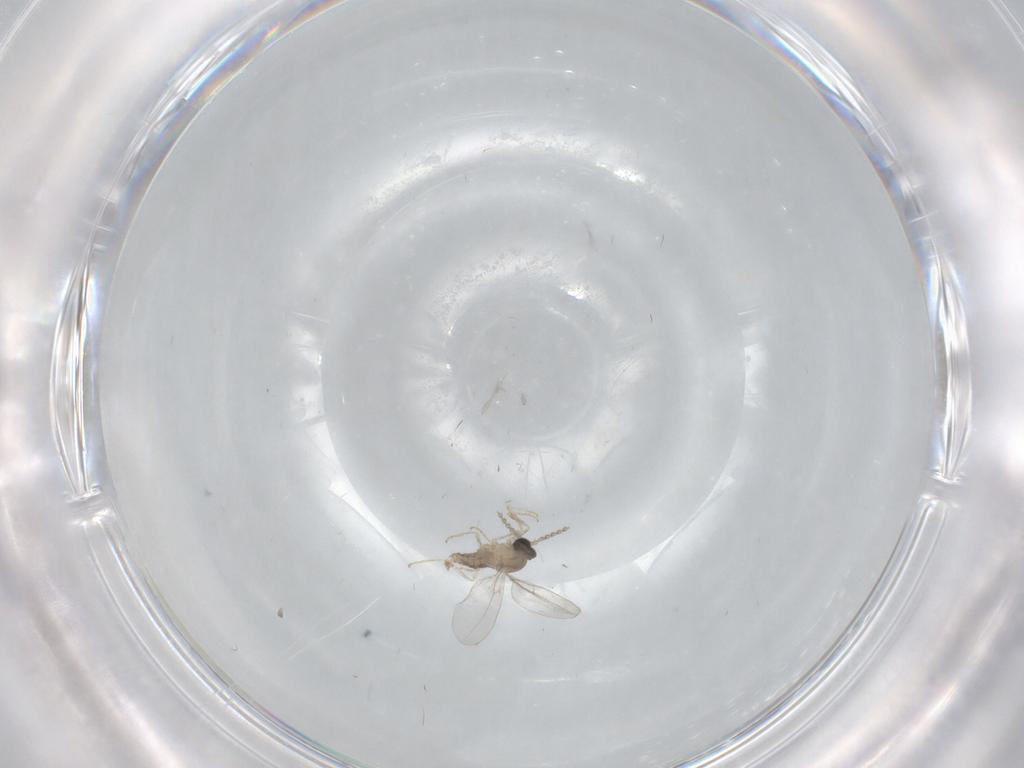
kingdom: Animalia
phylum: Arthropoda
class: Insecta
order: Diptera
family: Cecidomyiidae
